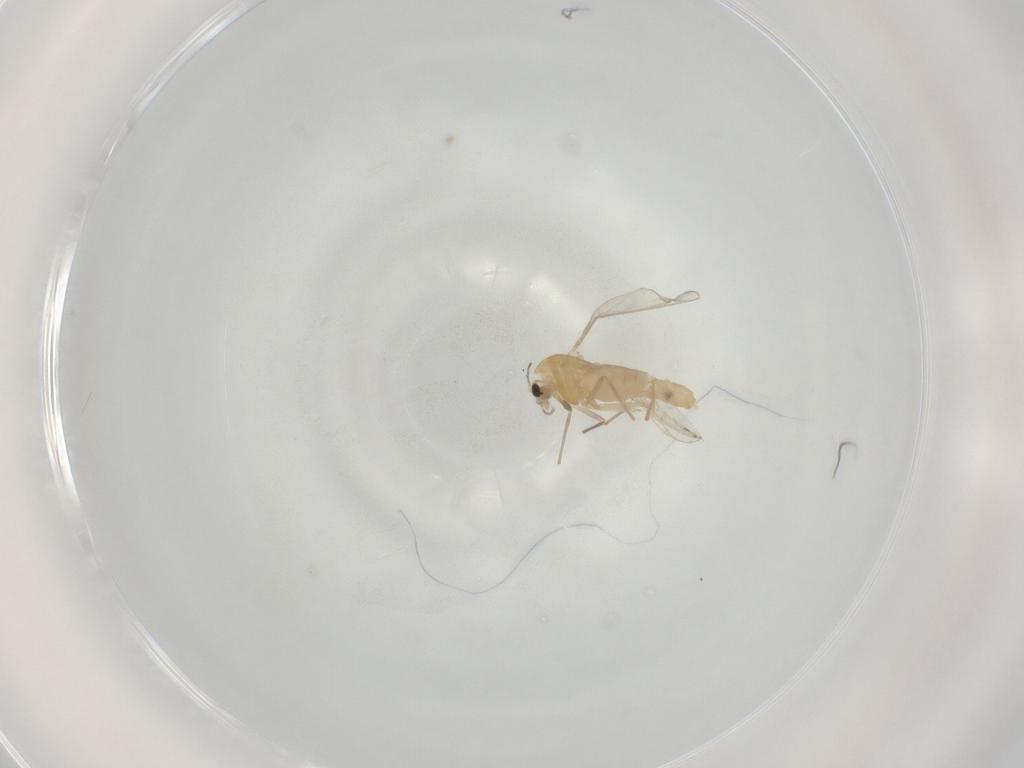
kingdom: Animalia
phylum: Arthropoda
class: Insecta
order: Diptera
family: Chironomidae
